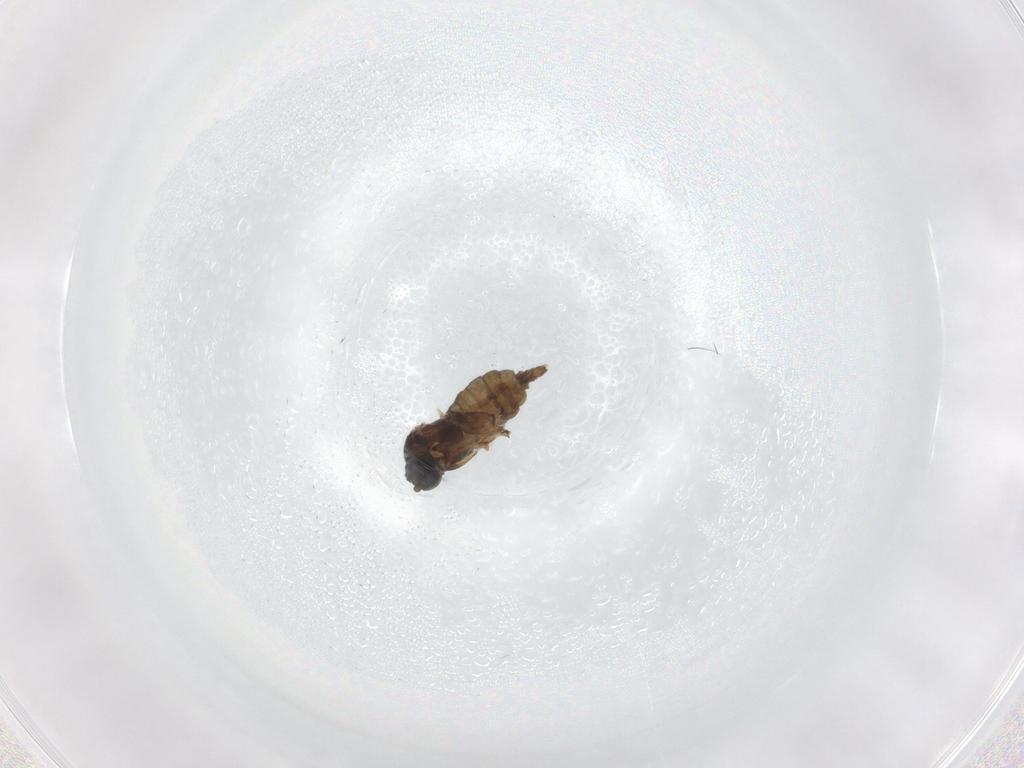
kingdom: Animalia
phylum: Arthropoda
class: Insecta
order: Diptera
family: Sciaridae
